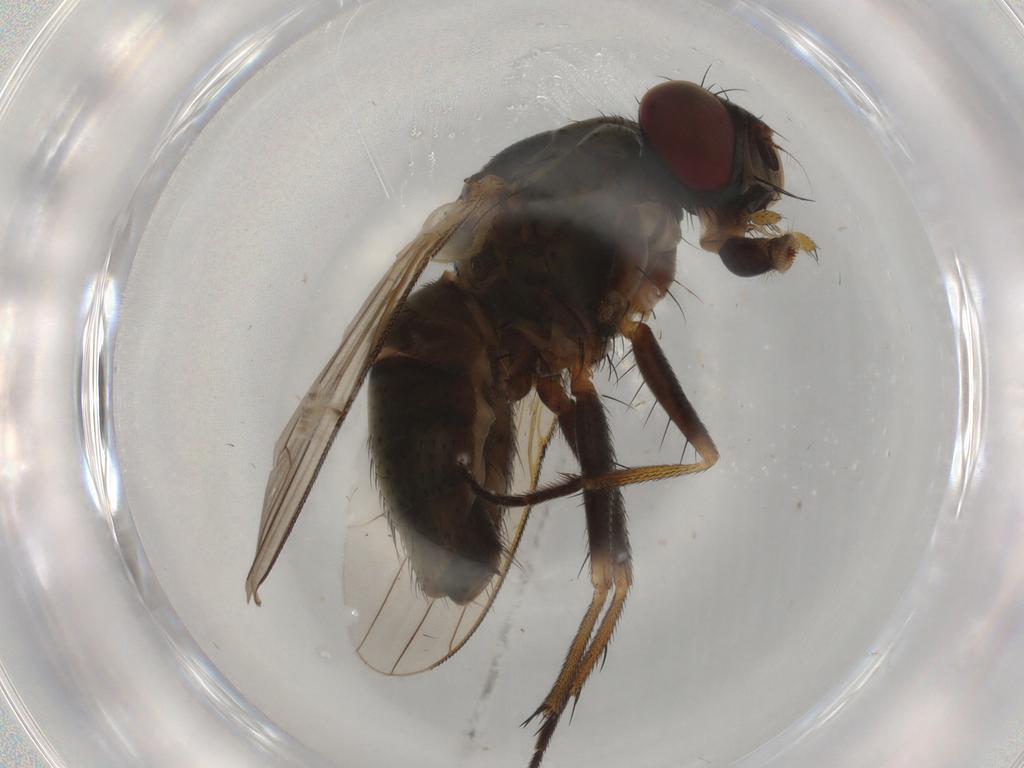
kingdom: Animalia
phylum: Arthropoda
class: Insecta
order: Diptera
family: Muscidae
